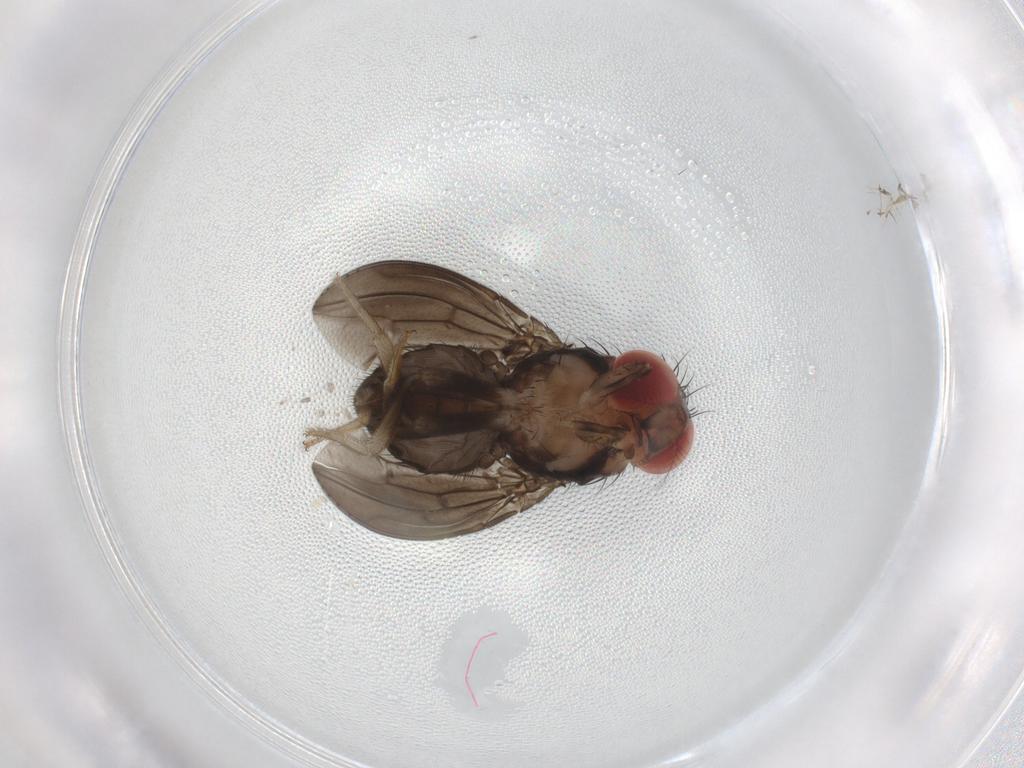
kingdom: Animalia
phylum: Arthropoda
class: Insecta
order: Diptera
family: Drosophilidae
